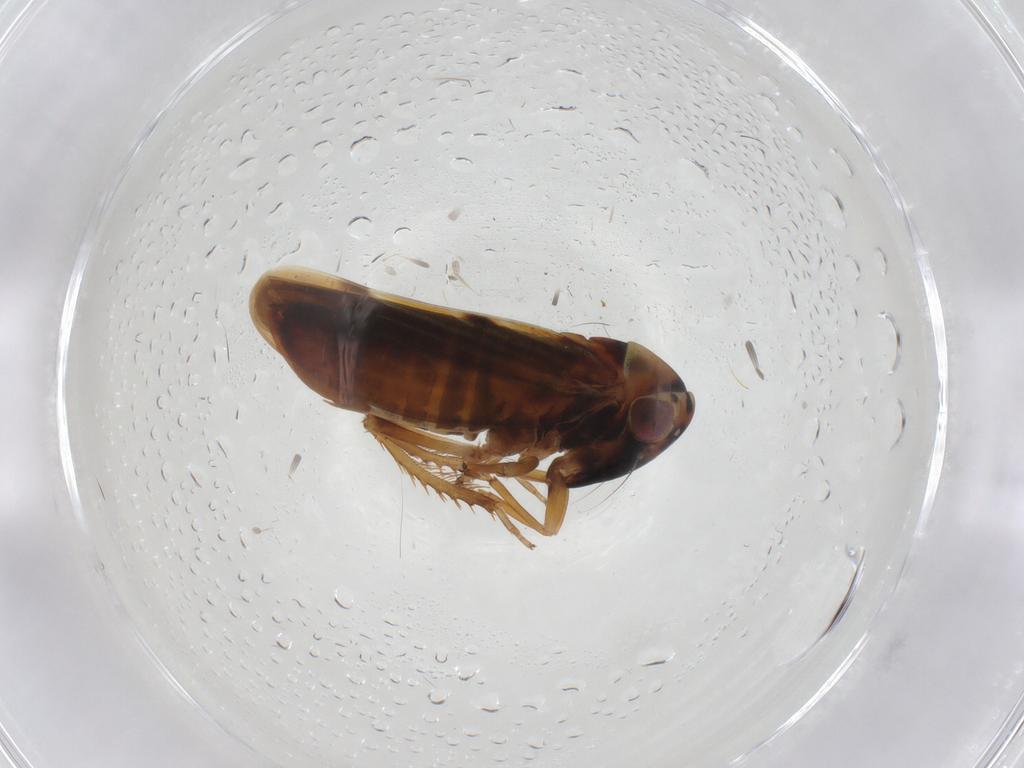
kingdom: Animalia
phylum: Arthropoda
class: Insecta
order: Hemiptera
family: Cicadellidae
